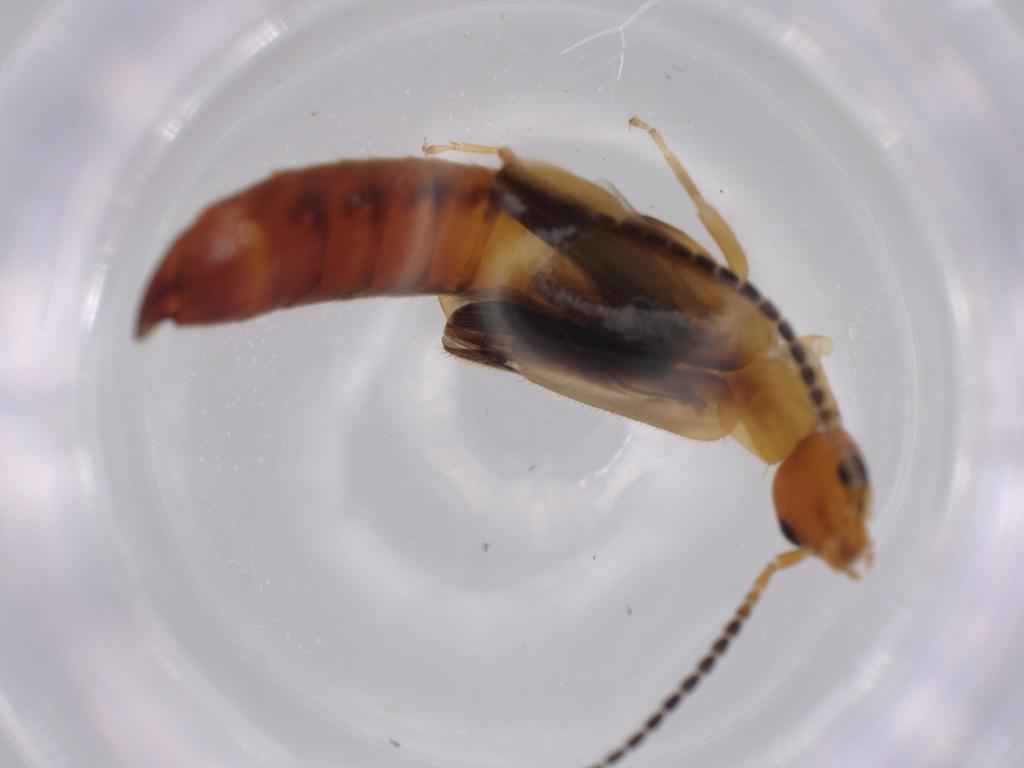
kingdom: Animalia
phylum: Arthropoda
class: Insecta
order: Dermaptera
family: Forficulidae
